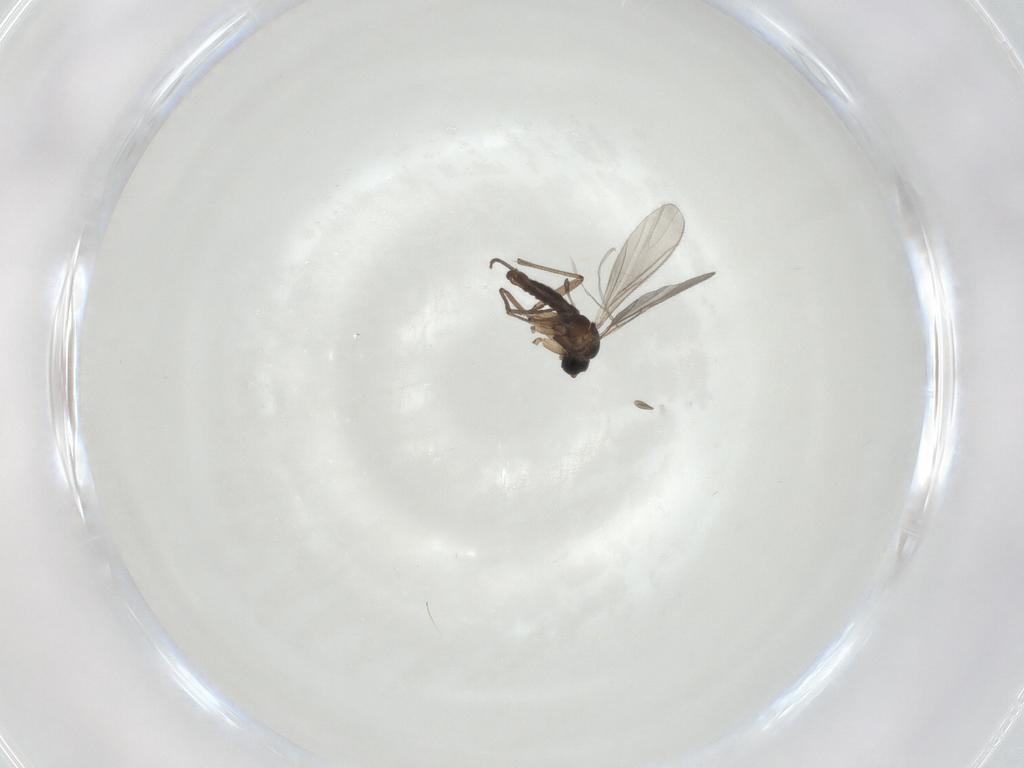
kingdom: Animalia
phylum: Arthropoda
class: Insecta
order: Diptera
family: Sciaridae
